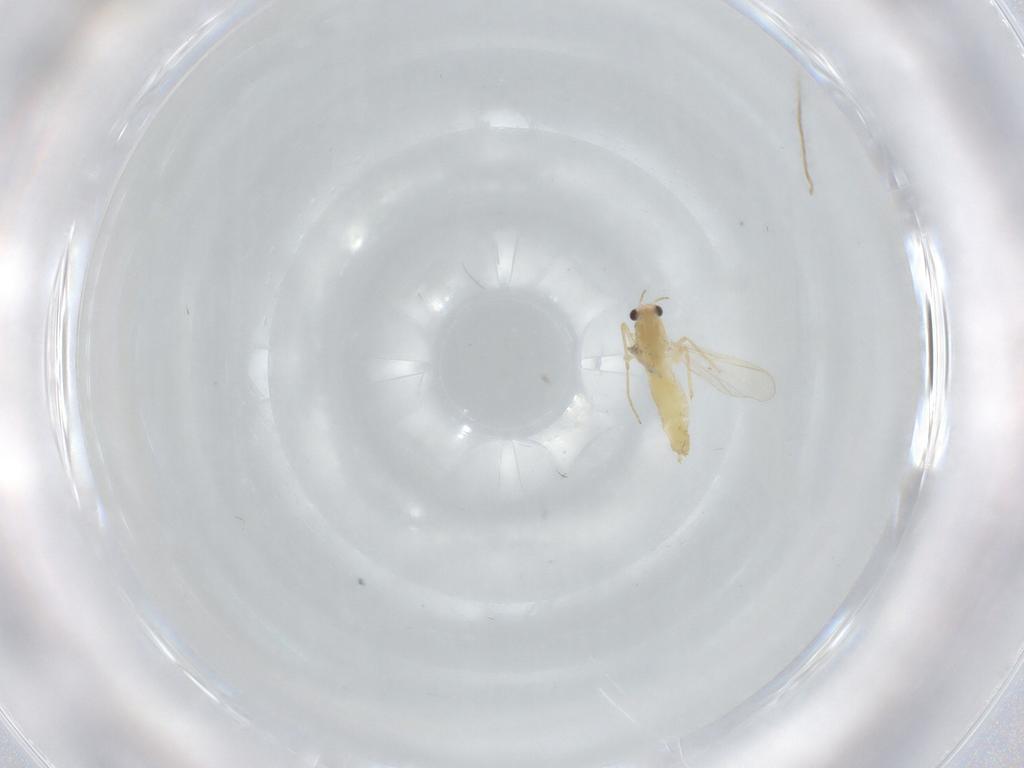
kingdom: Animalia
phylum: Arthropoda
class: Insecta
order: Diptera
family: Chironomidae
